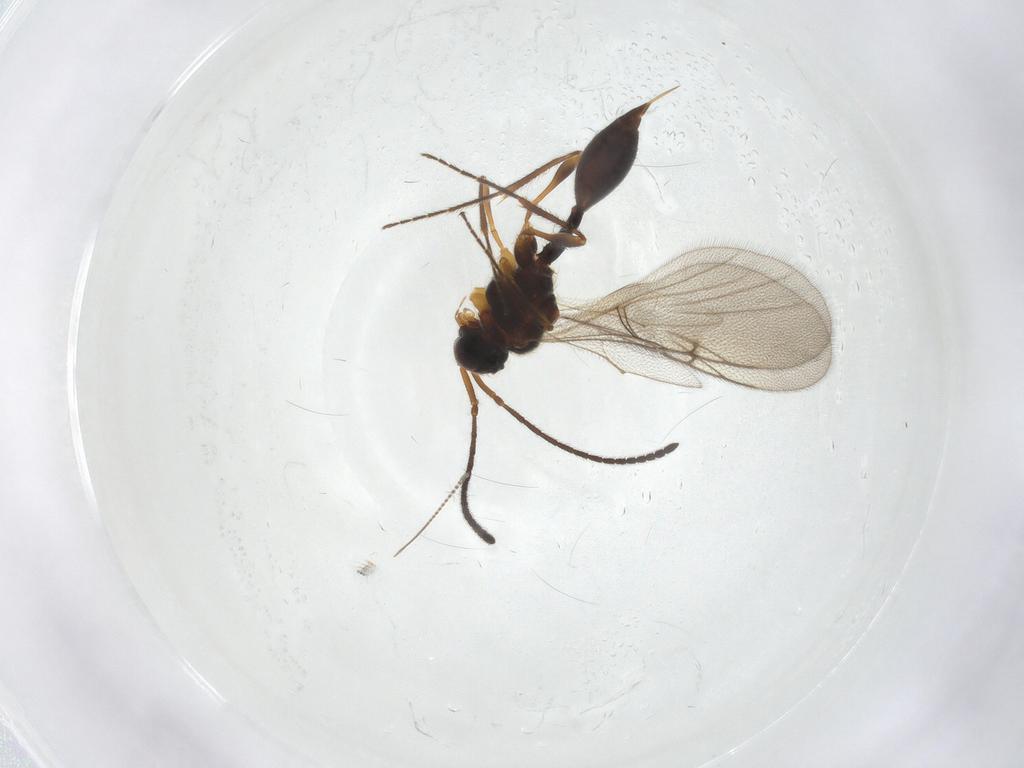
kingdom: Animalia
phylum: Arthropoda
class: Insecta
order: Hymenoptera
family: Diapriidae
